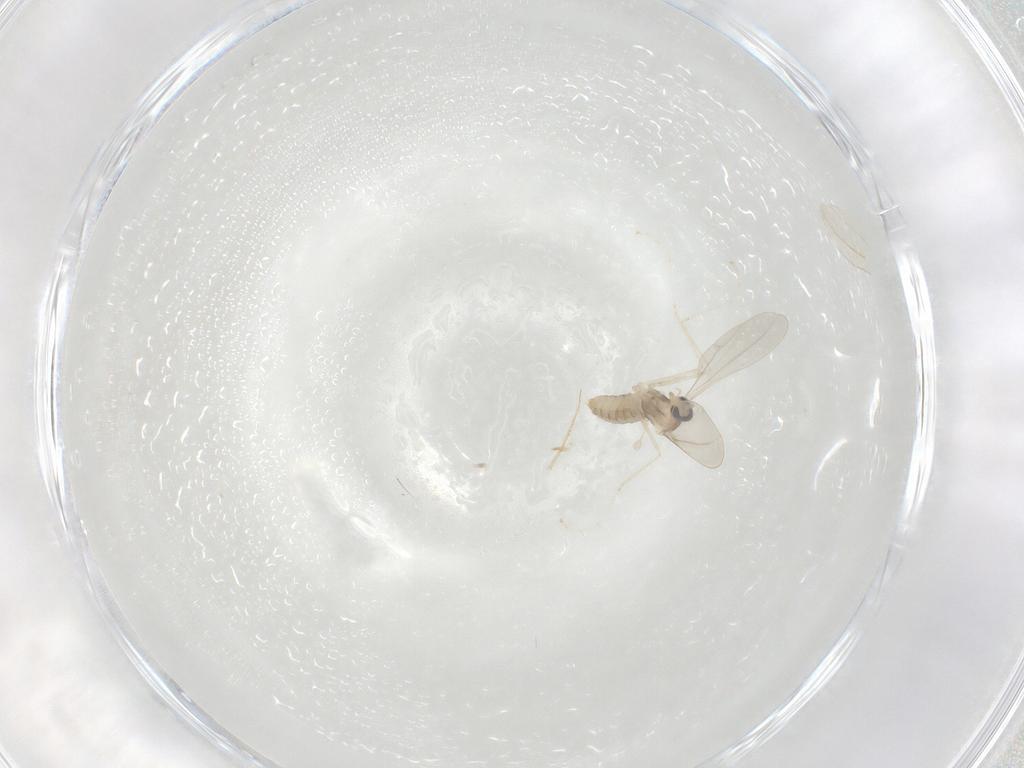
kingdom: Animalia
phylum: Arthropoda
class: Insecta
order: Diptera
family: Cecidomyiidae
